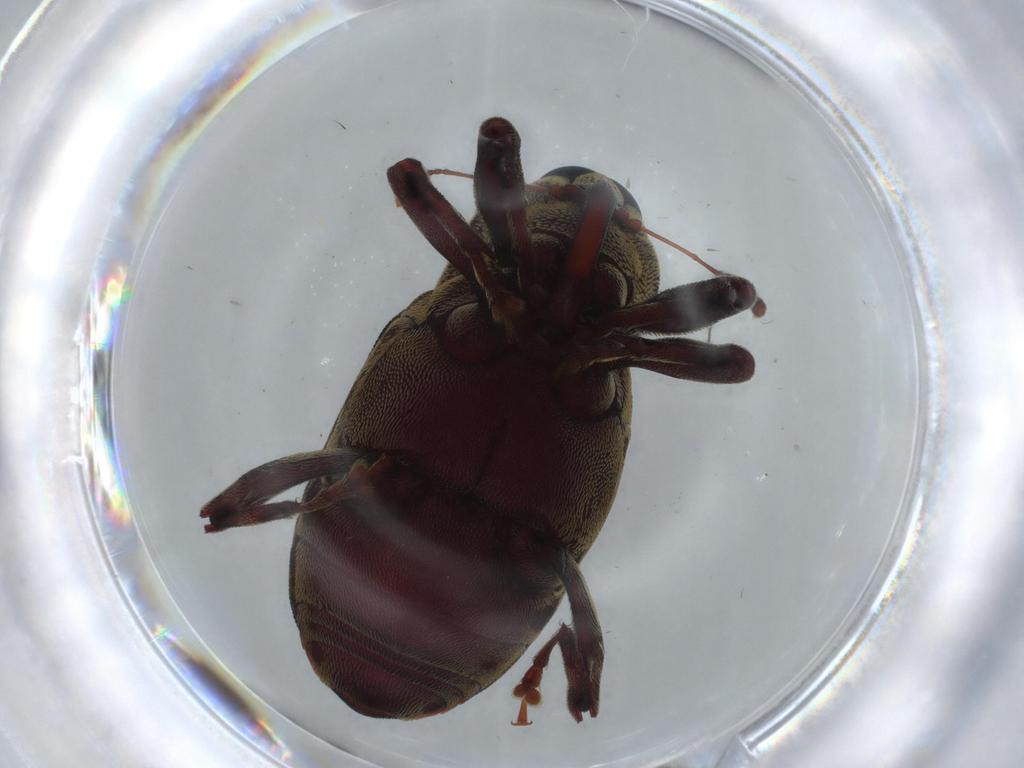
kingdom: Animalia
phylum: Arthropoda
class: Insecta
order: Coleoptera
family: Curculionidae
